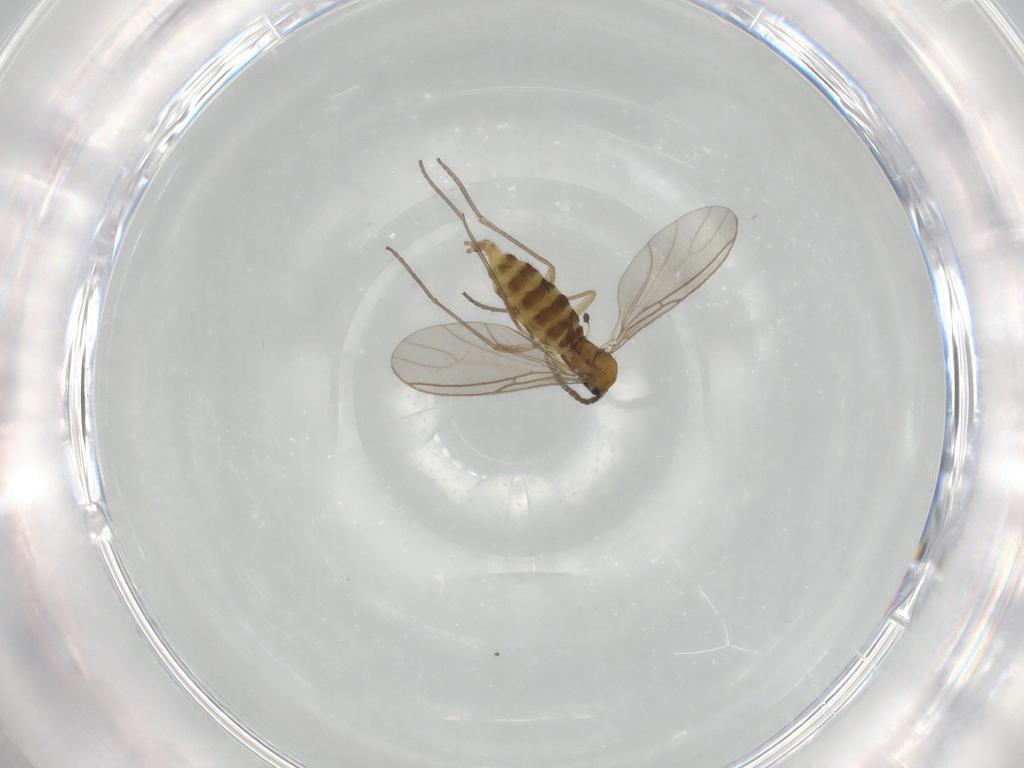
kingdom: Animalia
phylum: Arthropoda
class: Insecta
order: Diptera
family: Sciaridae
